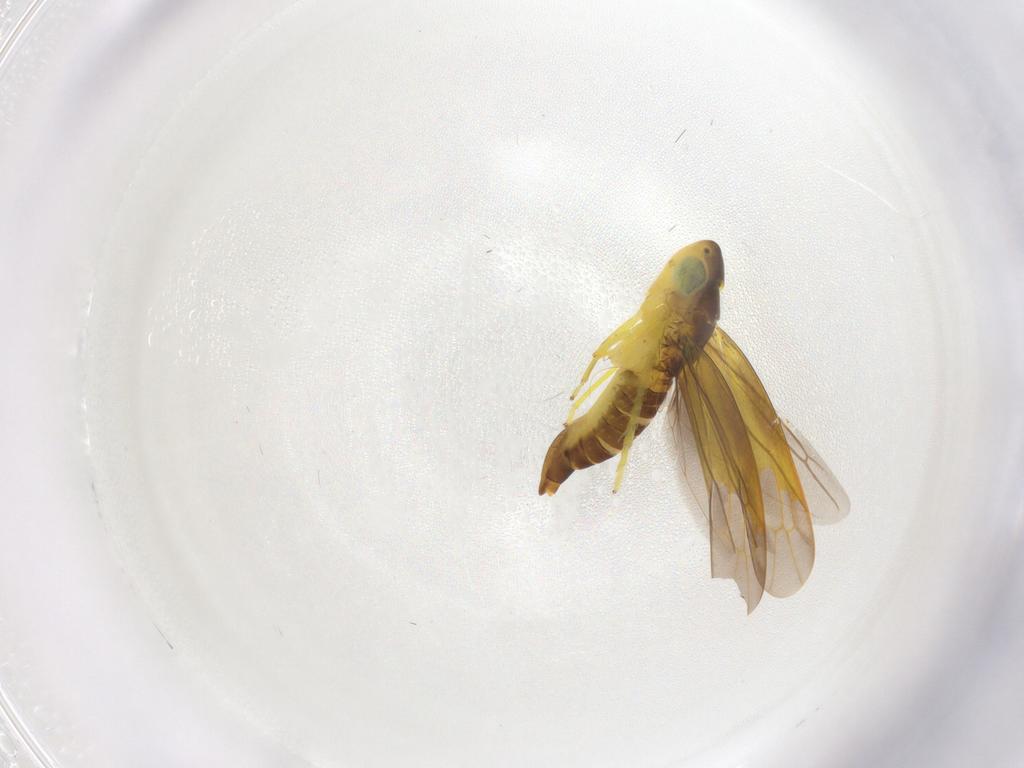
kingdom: Animalia
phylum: Arthropoda
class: Insecta
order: Hemiptera
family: Cicadellidae
